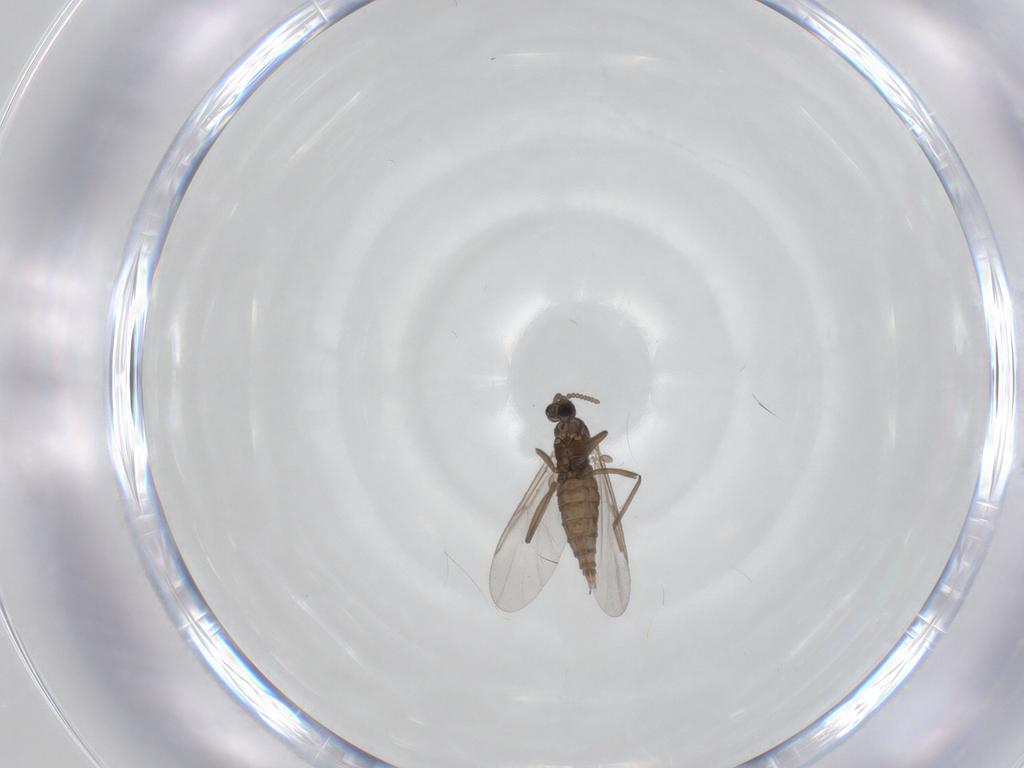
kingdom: Animalia
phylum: Arthropoda
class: Insecta
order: Diptera
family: Cecidomyiidae
